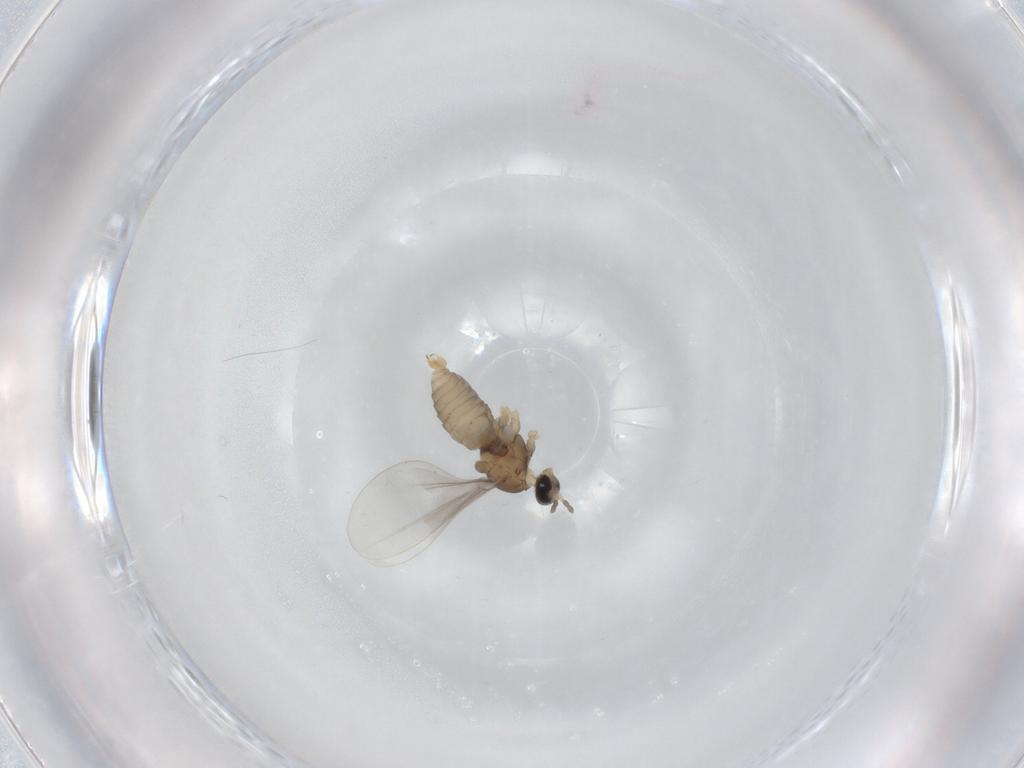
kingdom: Animalia
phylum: Arthropoda
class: Insecta
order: Diptera
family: Cecidomyiidae
